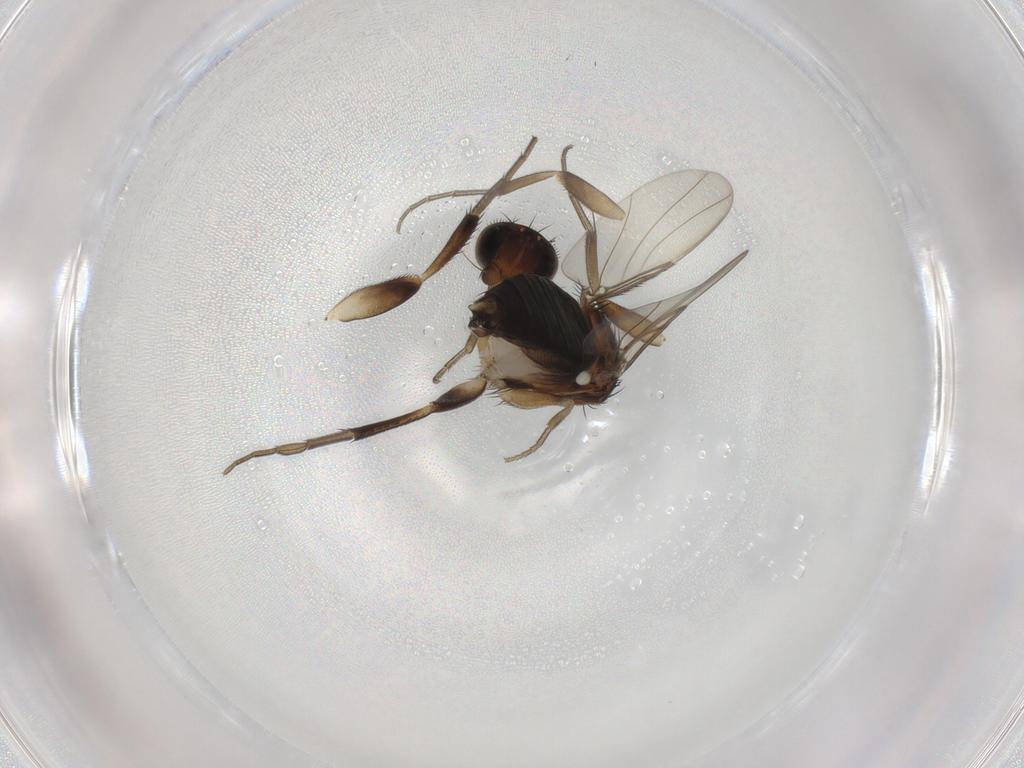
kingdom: Animalia
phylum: Arthropoda
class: Insecta
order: Diptera
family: Phoridae
